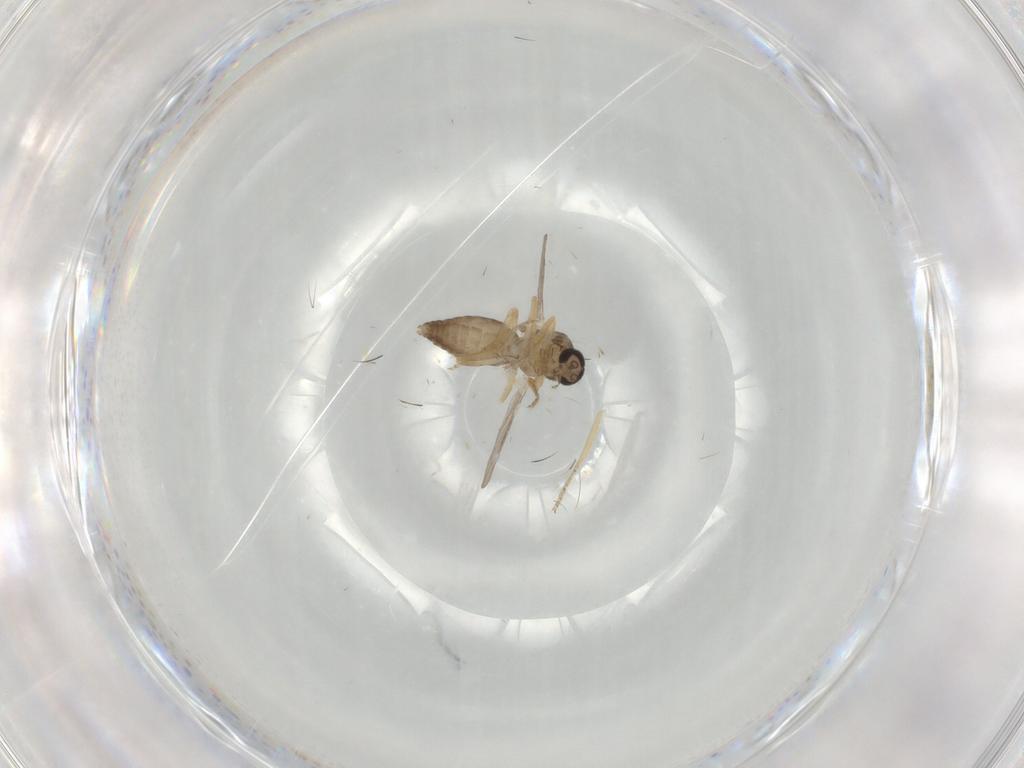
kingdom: Animalia
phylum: Arthropoda
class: Insecta
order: Diptera
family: Ceratopogonidae
